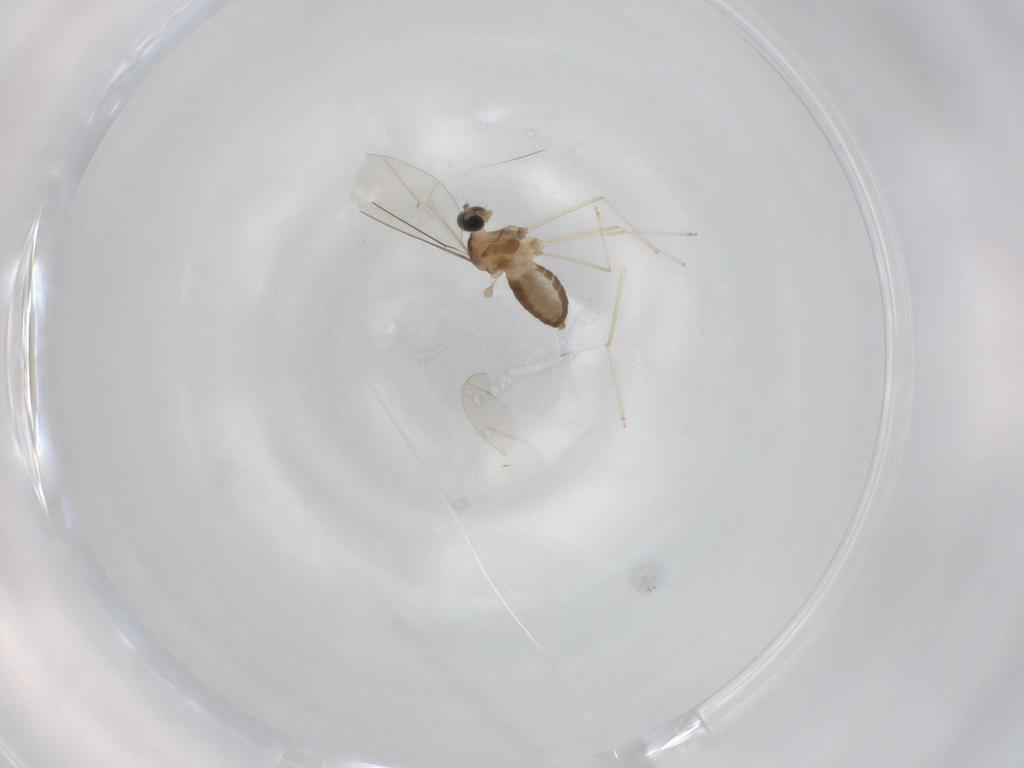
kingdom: Animalia
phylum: Arthropoda
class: Insecta
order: Diptera
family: Cecidomyiidae
